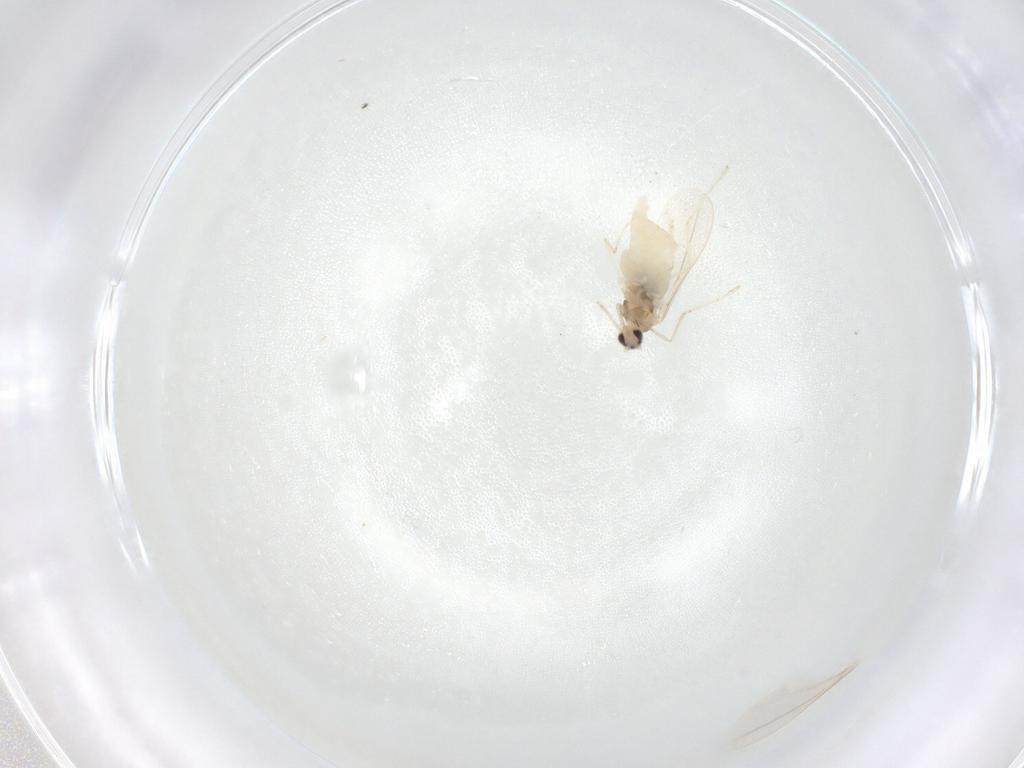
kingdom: Animalia
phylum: Arthropoda
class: Insecta
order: Diptera
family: Cecidomyiidae
